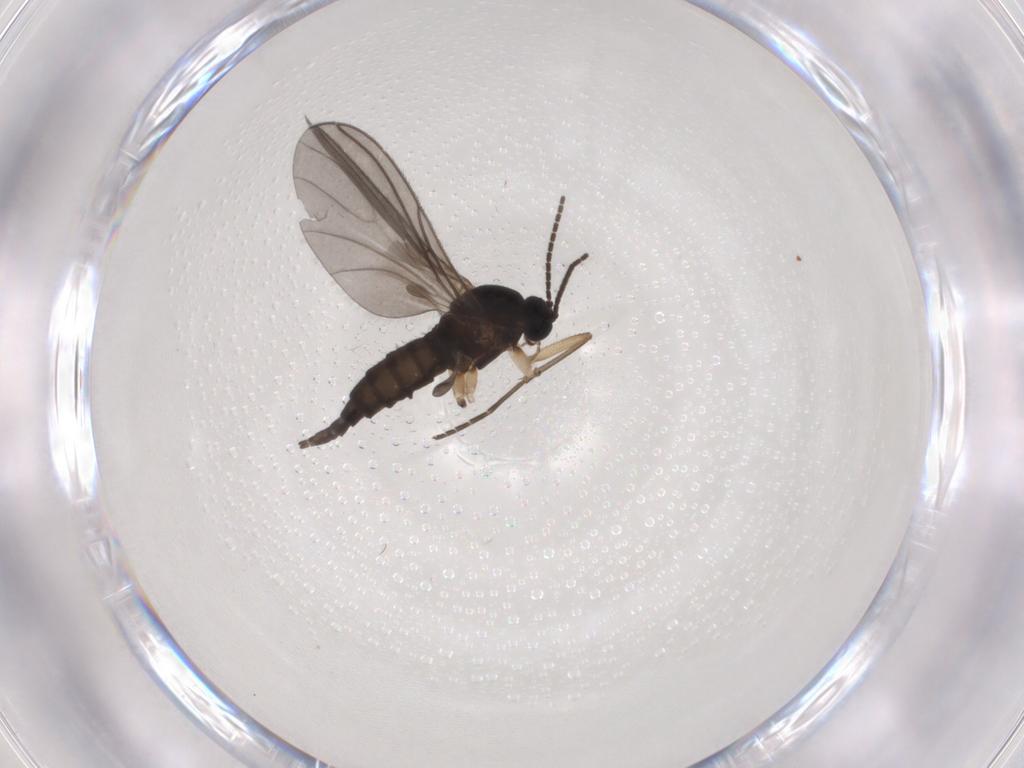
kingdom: Animalia
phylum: Arthropoda
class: Insecta
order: Diptera
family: Sciaridae
